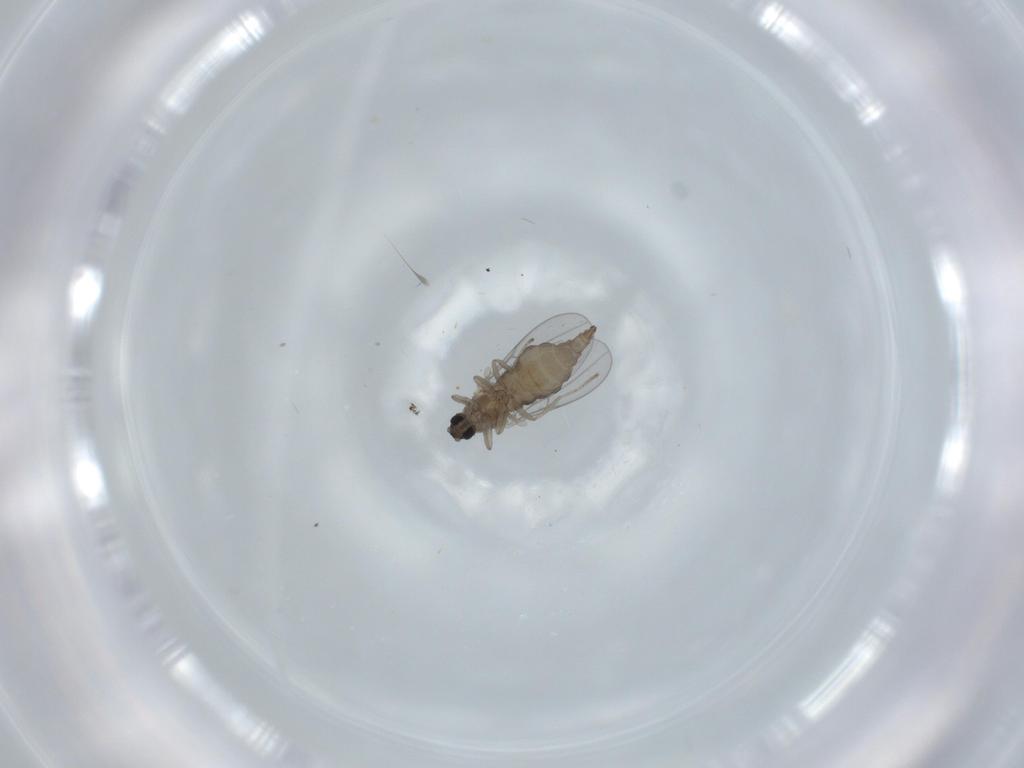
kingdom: Animalia
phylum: Arthropoda
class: Insecta
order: Diptera
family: Cecidomyiidae
